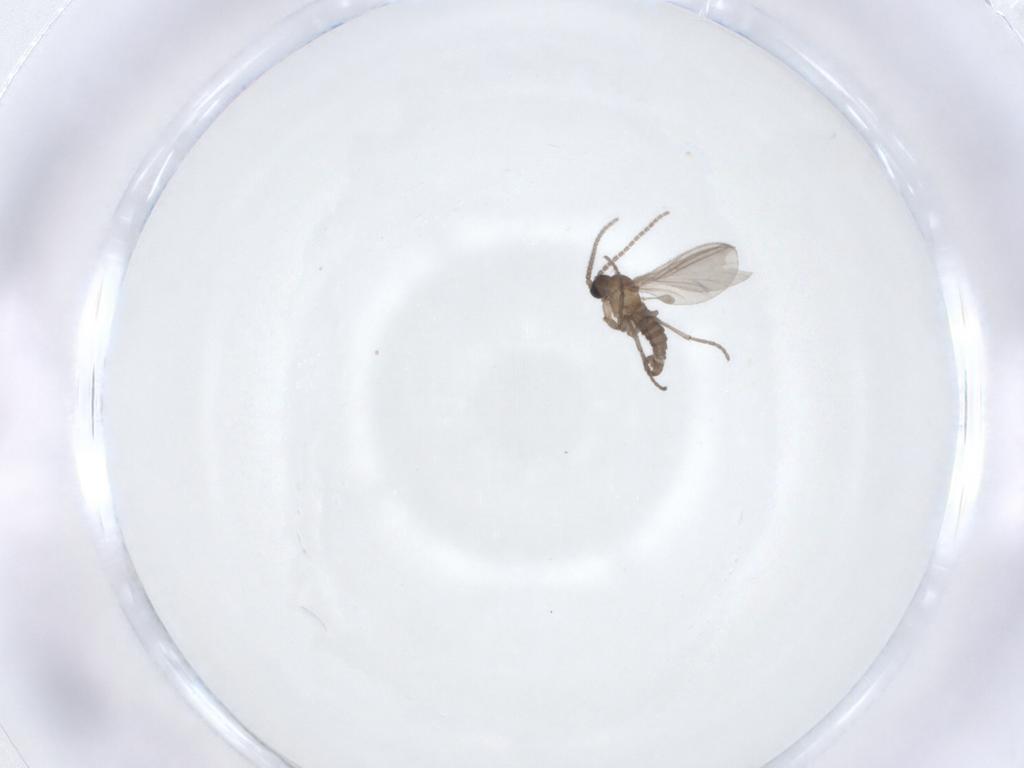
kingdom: Animalia
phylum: Arthropoda
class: Insecta
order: Diptera
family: Sciaridae
